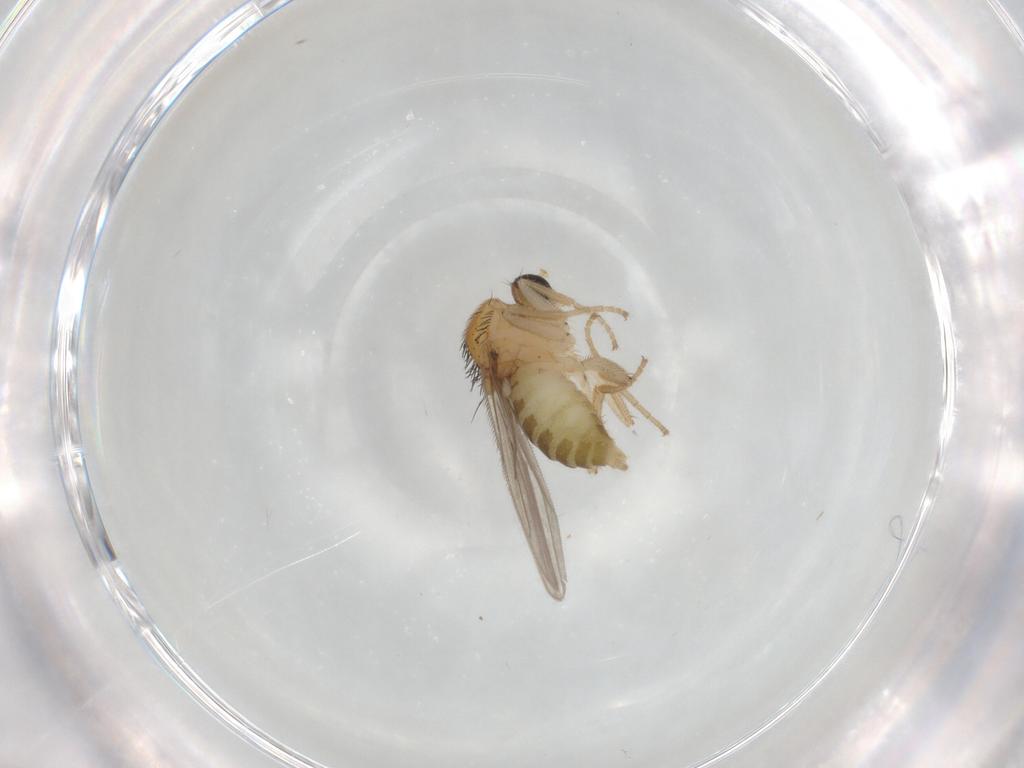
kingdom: Animalia
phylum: Arthropoda
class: Insecta
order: Diptera
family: Hybotidae
